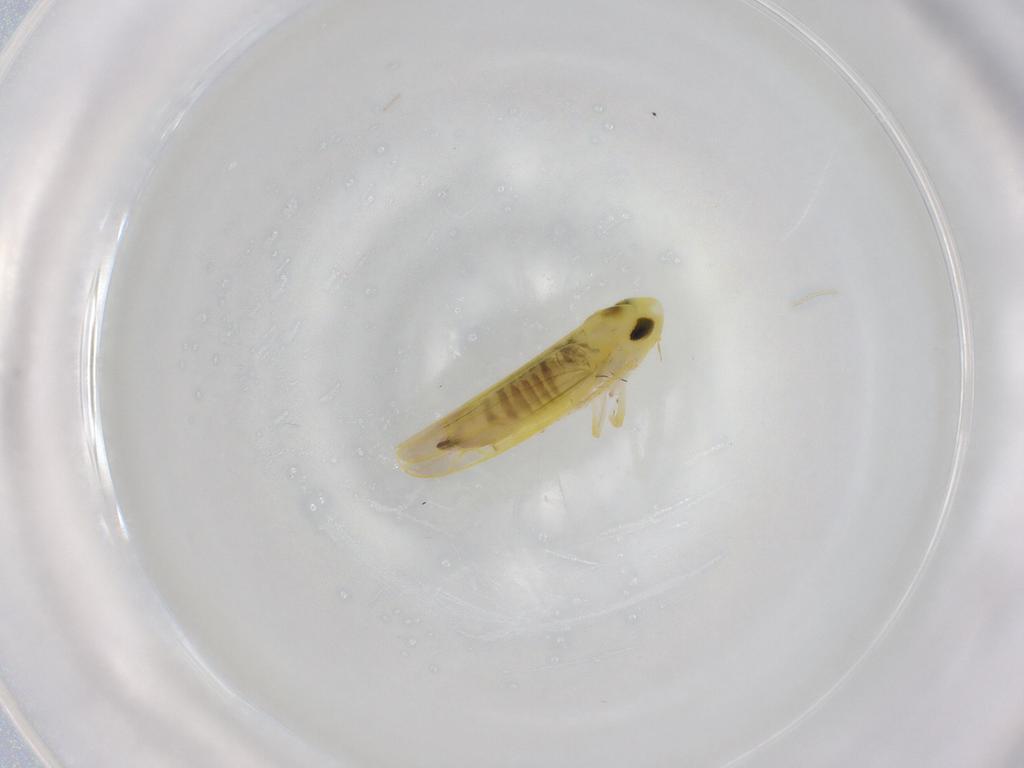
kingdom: Animalia
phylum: Arthropoda
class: Insecta
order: Hemiptera
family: Cicadellidae
